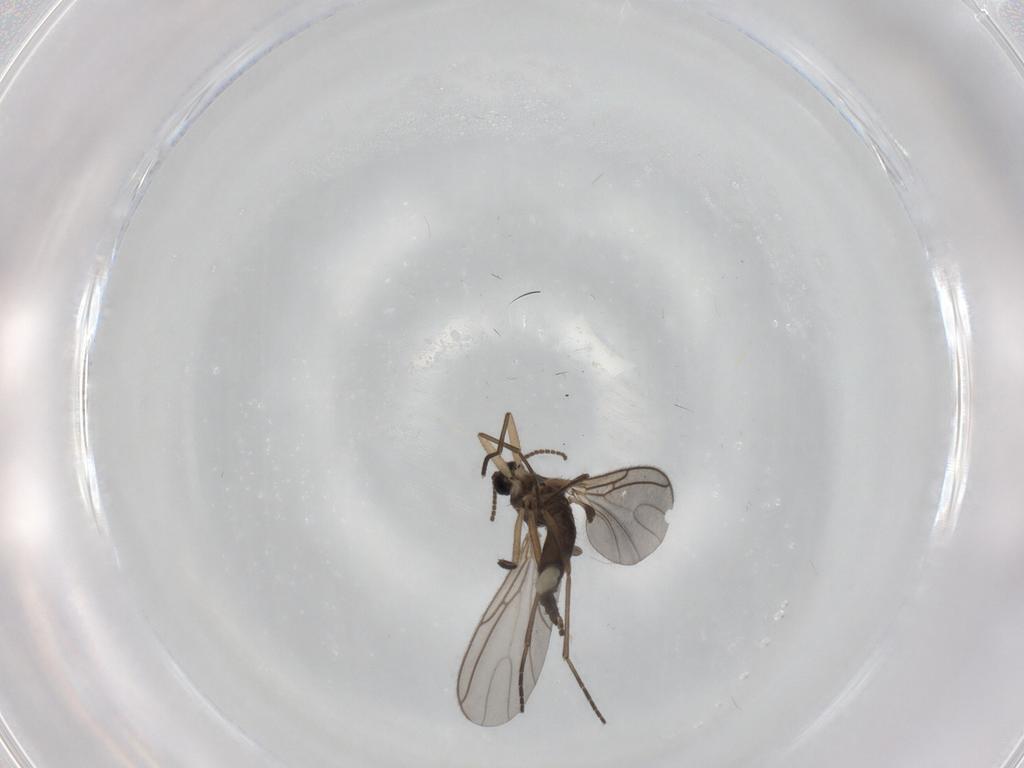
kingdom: Animalia
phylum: Arthropoda
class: Insecta
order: Diptera
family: Sciaridae
